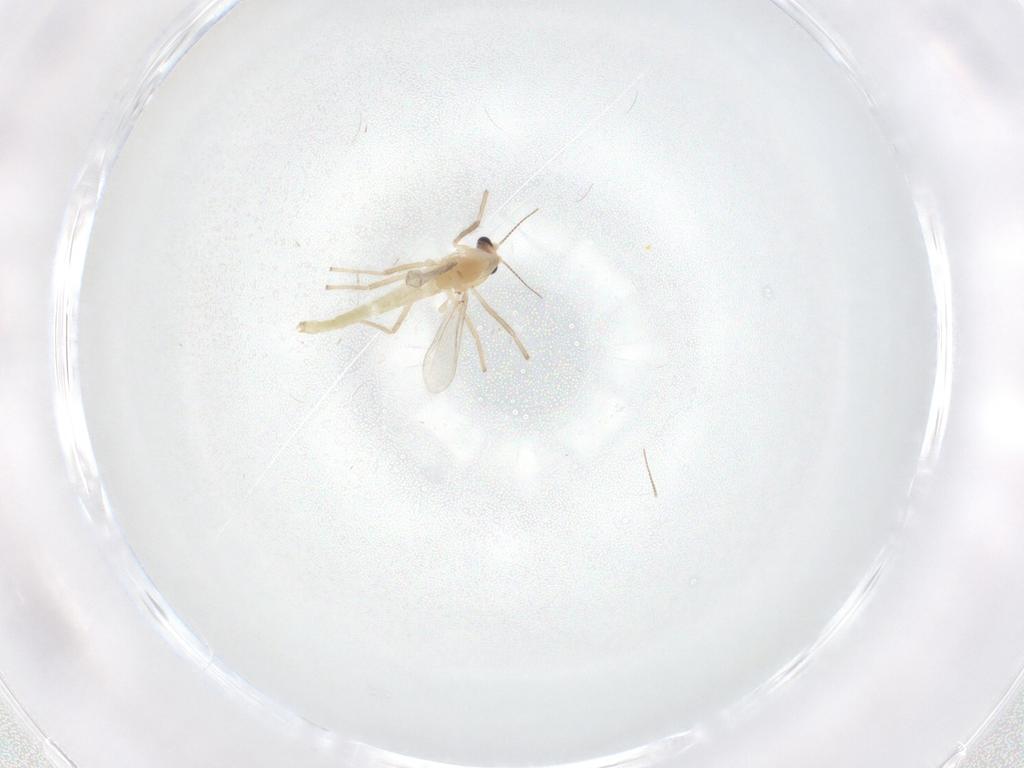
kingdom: Animalia
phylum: Arthropoda
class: Insecta
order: Diptera
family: Chironomidae
